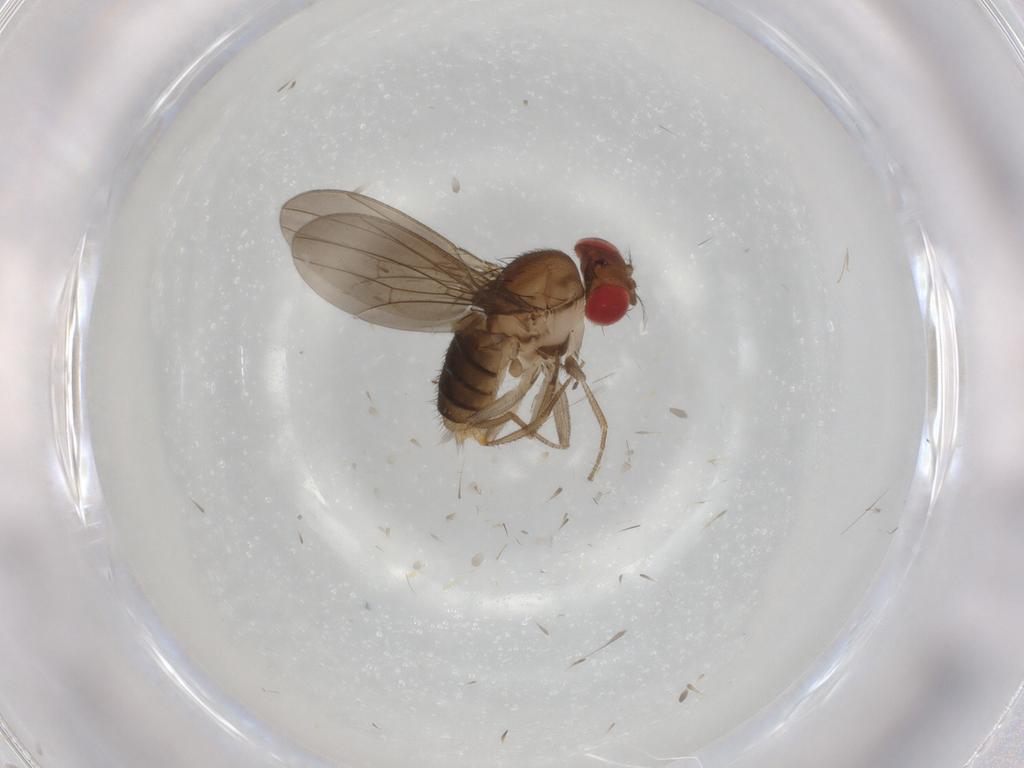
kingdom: Animalia
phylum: Arthropoda
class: Insecta
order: Diptera
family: Drosophilidae
